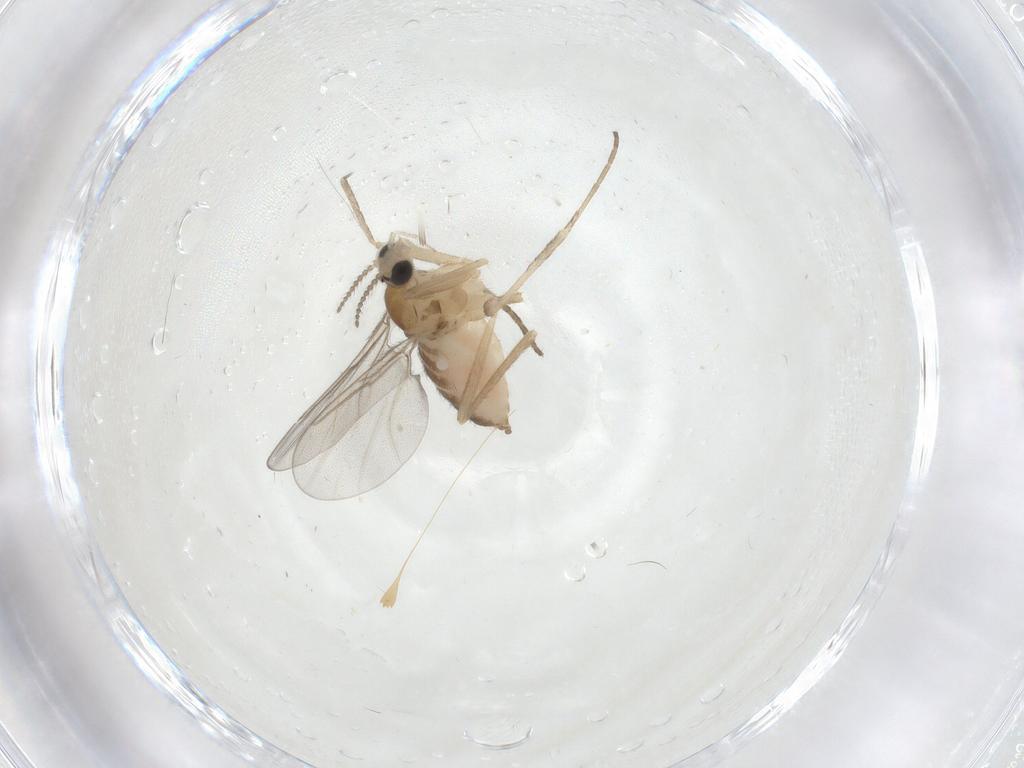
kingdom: Animalia
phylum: Arthropoda
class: Insecta
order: Diptera
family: Cecidomyiidae
